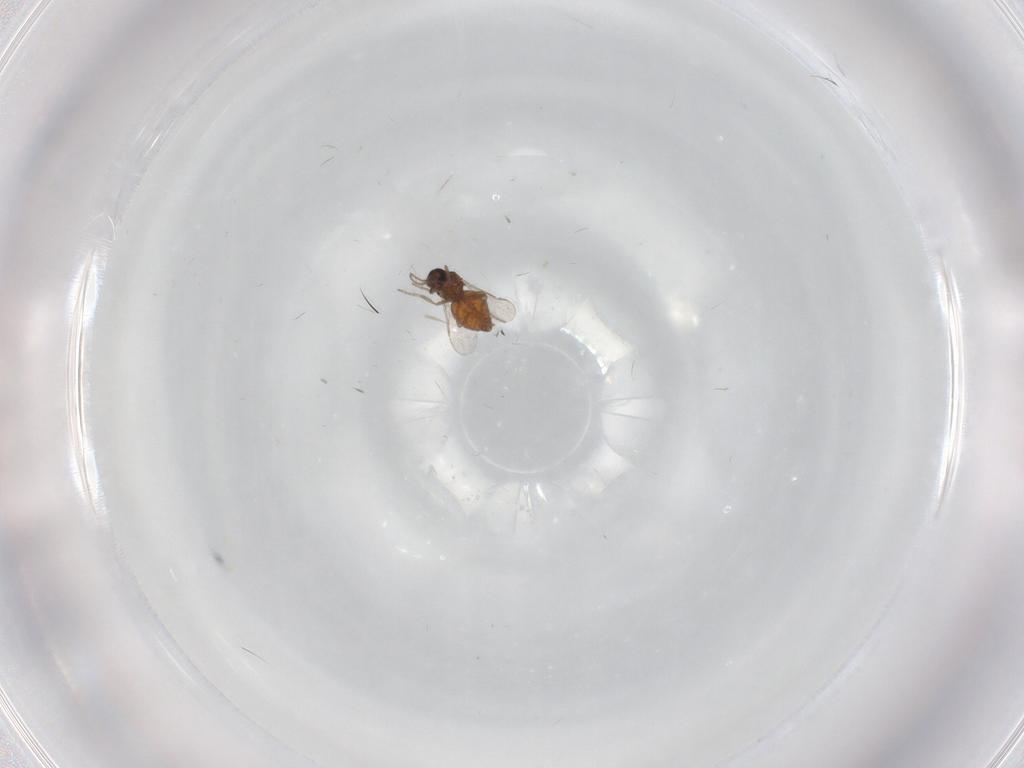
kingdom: Animalia
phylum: Arthropoda
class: Insecta
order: Diptera
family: Ceratopogonidae
